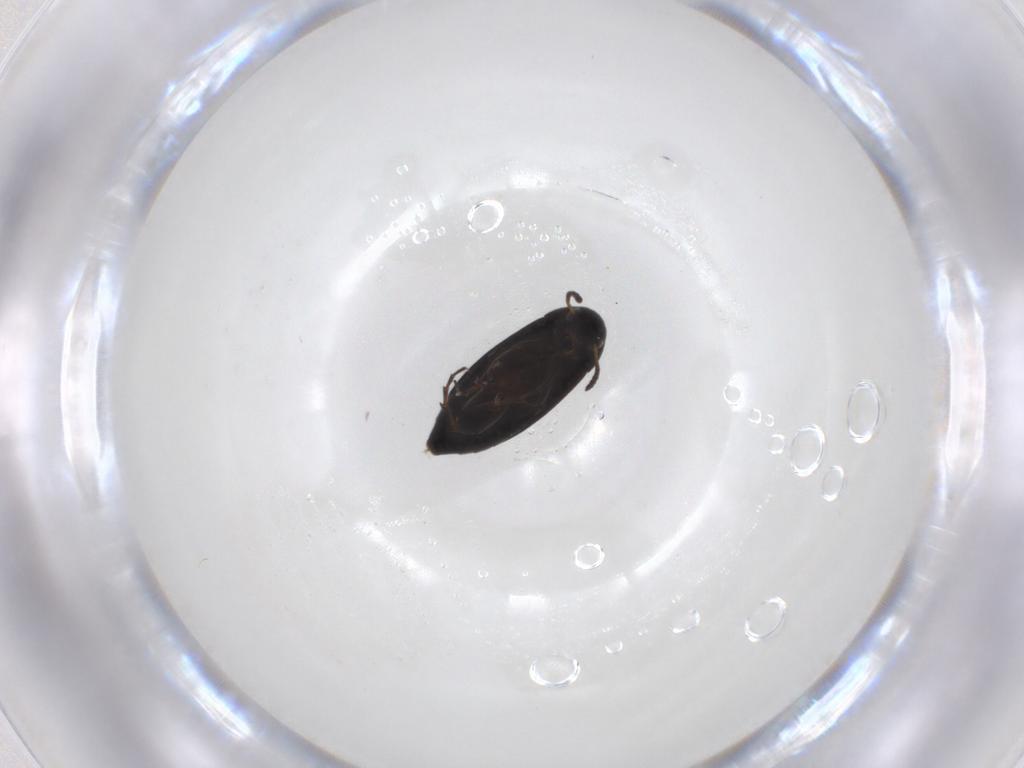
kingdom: Animalia
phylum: Arthropoda
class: Insecta
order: Coleoptera
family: Scraptiidae
